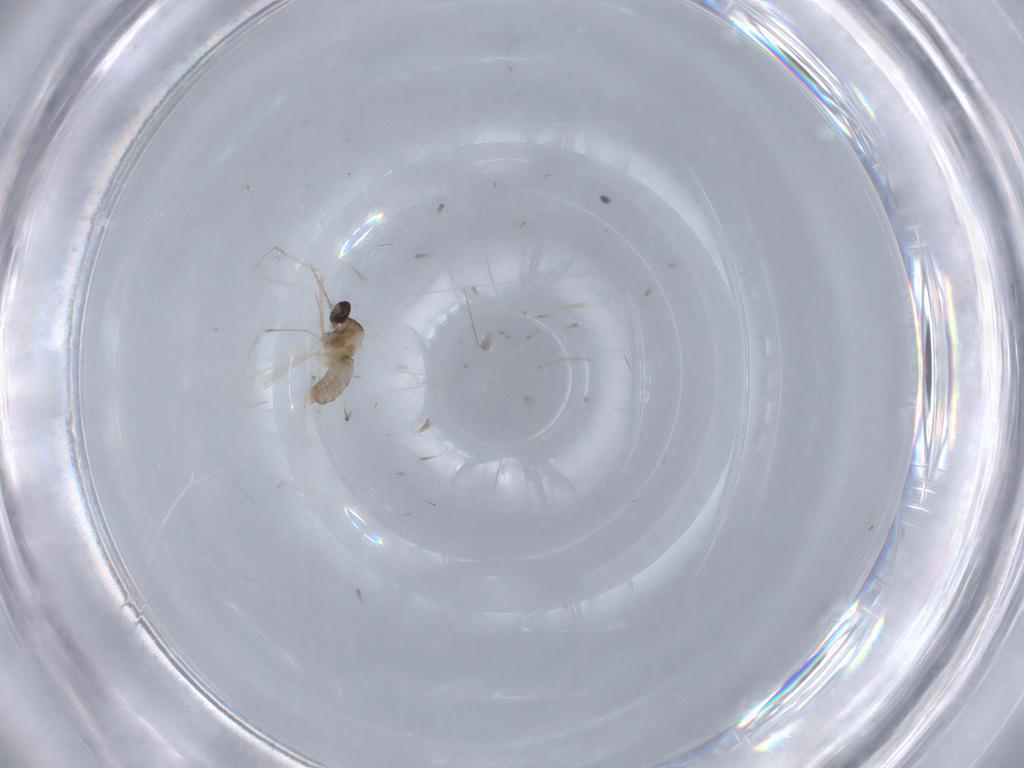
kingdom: Animalia
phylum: Arthropoda
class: Insecta
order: Diptera
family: Cecidomyiidae
